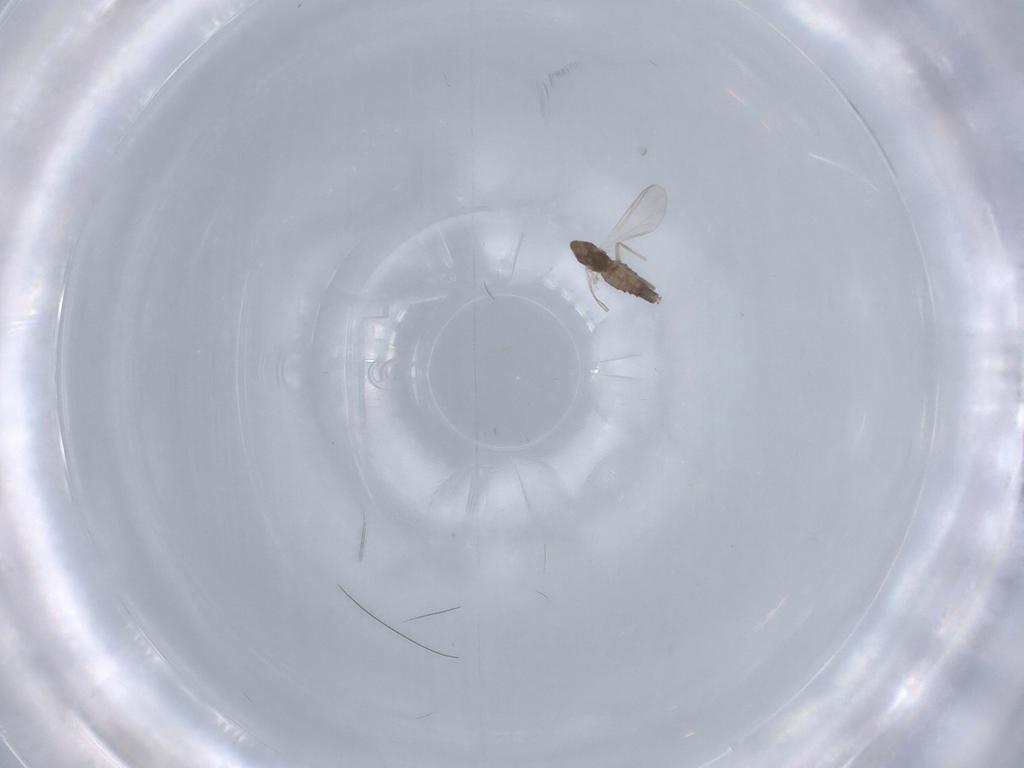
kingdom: Animalia
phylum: Arthropoda
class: Insecta
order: Diptera
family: Chironomidae
